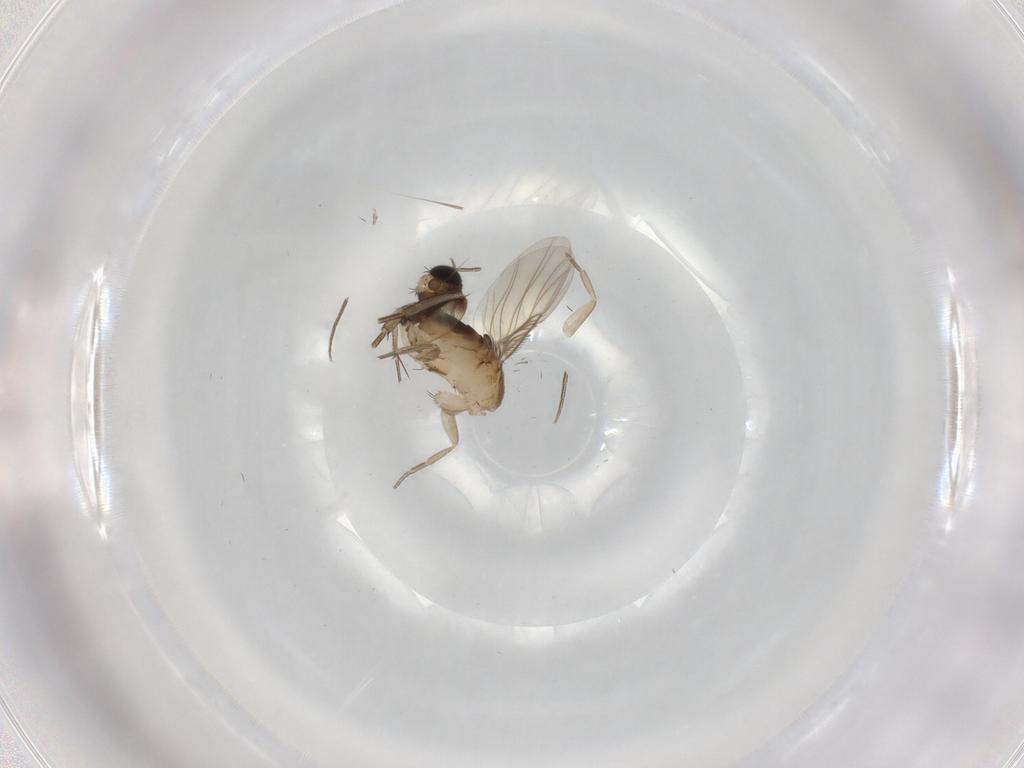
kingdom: Animalia
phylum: Arthropoda
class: Insecta
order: Diptera
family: Phoridae
